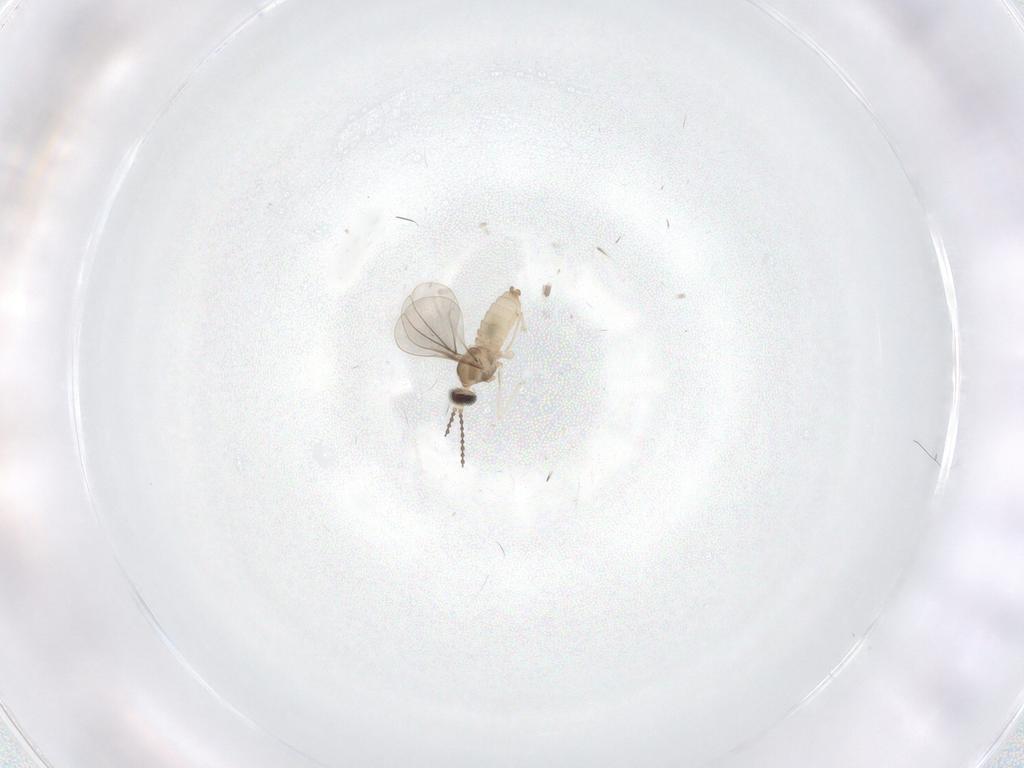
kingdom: Animalia
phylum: Arthropoda
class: Insecta
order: Diptera
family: Cecidomyiidae
